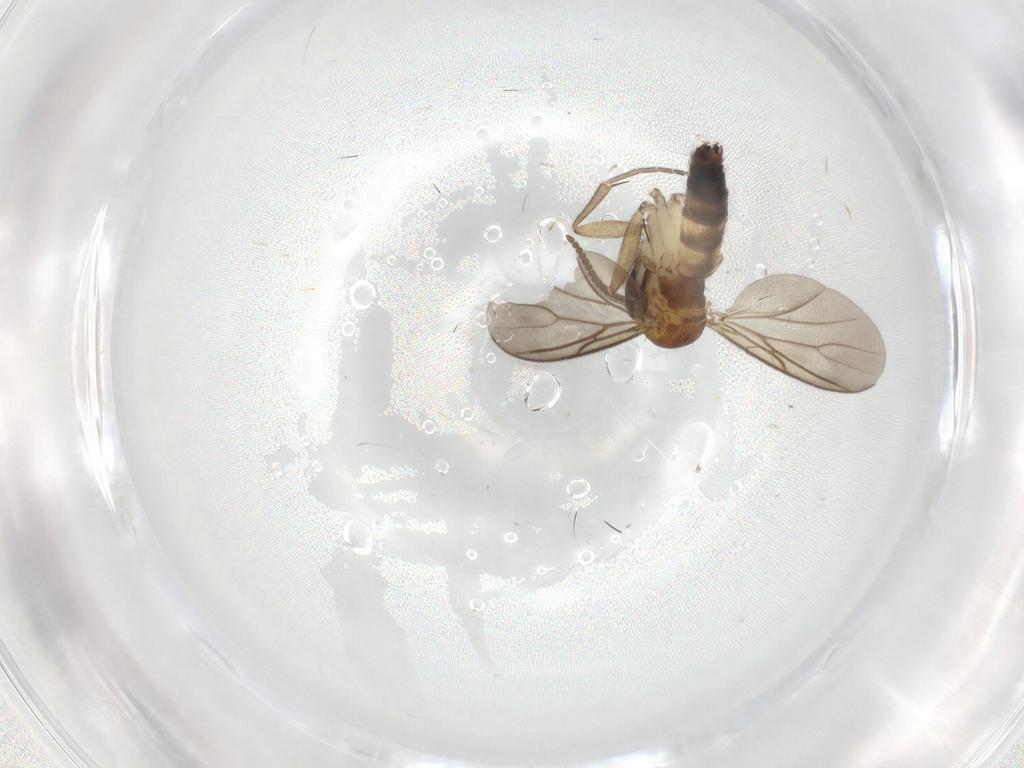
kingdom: Animalia
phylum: Arthropoda
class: Insecta
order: Diptera
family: Mycetophilidae
